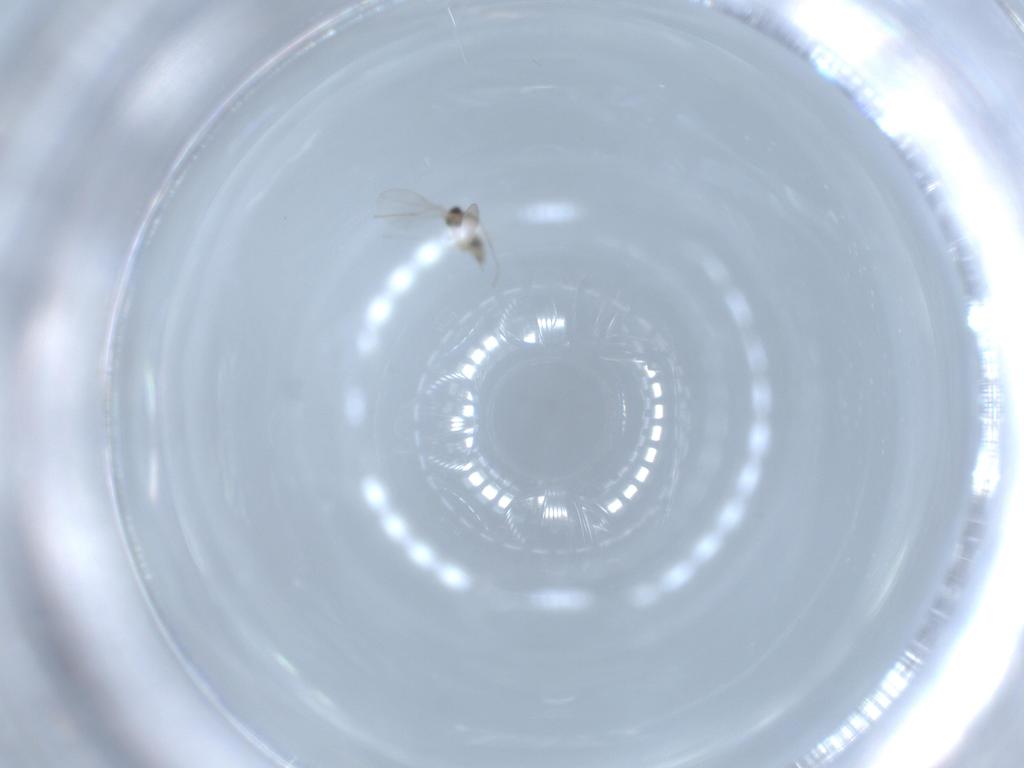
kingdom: Animalia
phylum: Arthropoda
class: Insecta
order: Diptera
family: Cecidomyiidae
